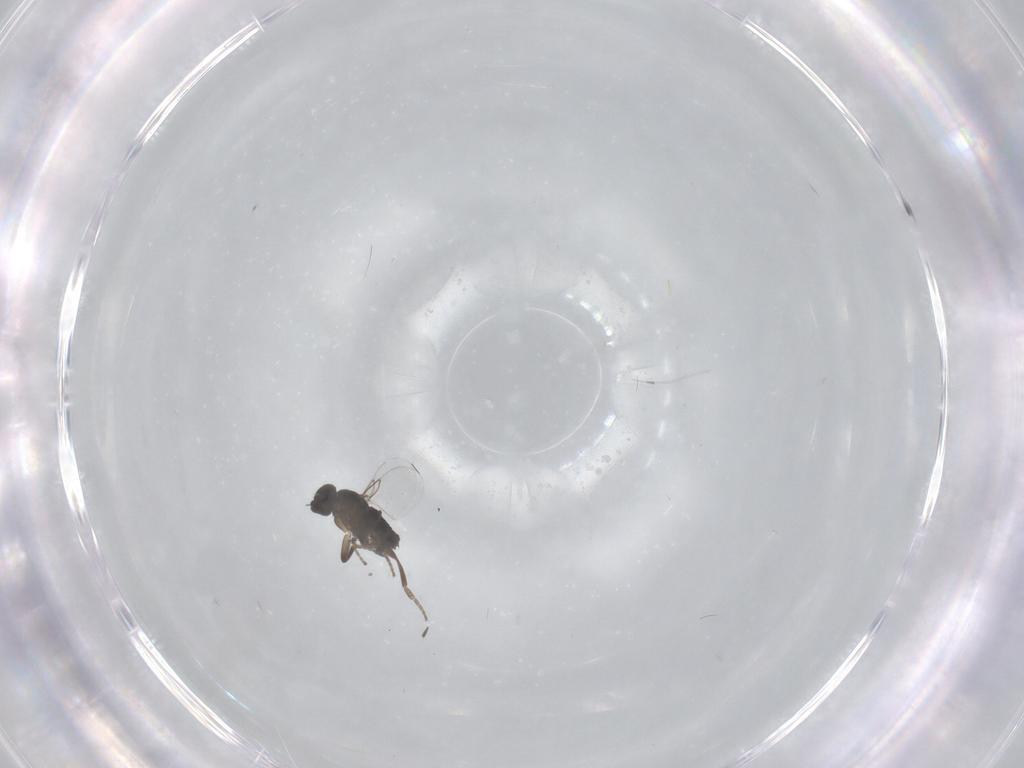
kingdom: Animalia
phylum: Arthropoda
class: Insecta
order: Diptera
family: Phoridae
